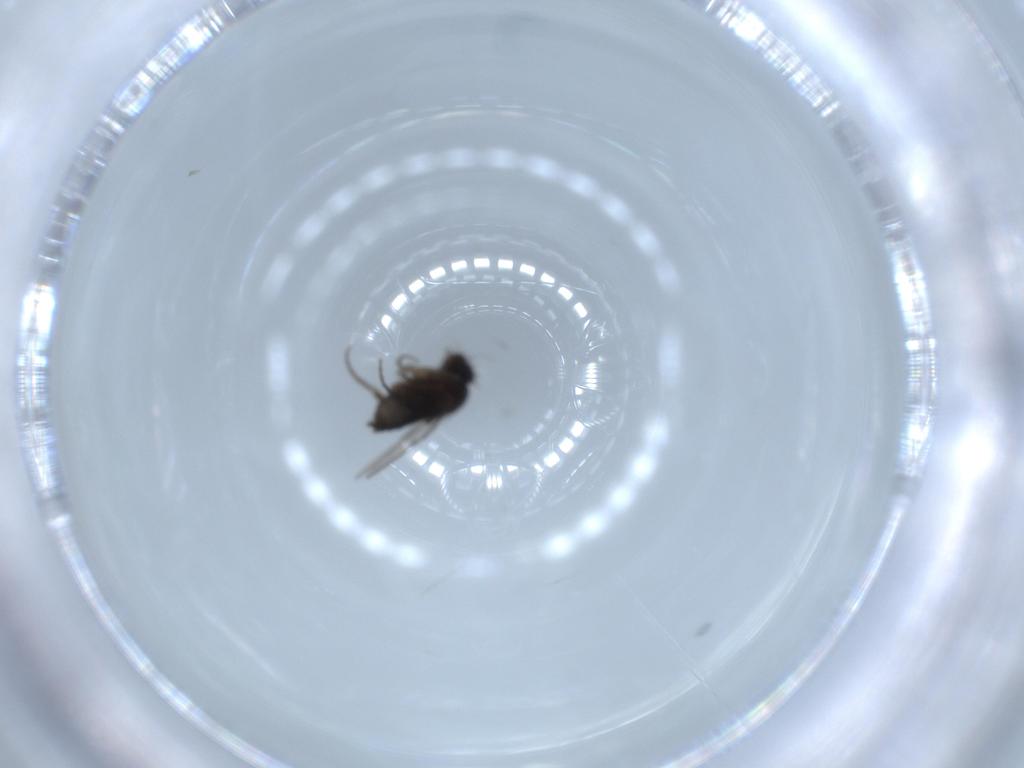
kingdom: Animalia
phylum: Arthropoda
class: Insecta
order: Diptera
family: Phoridae
